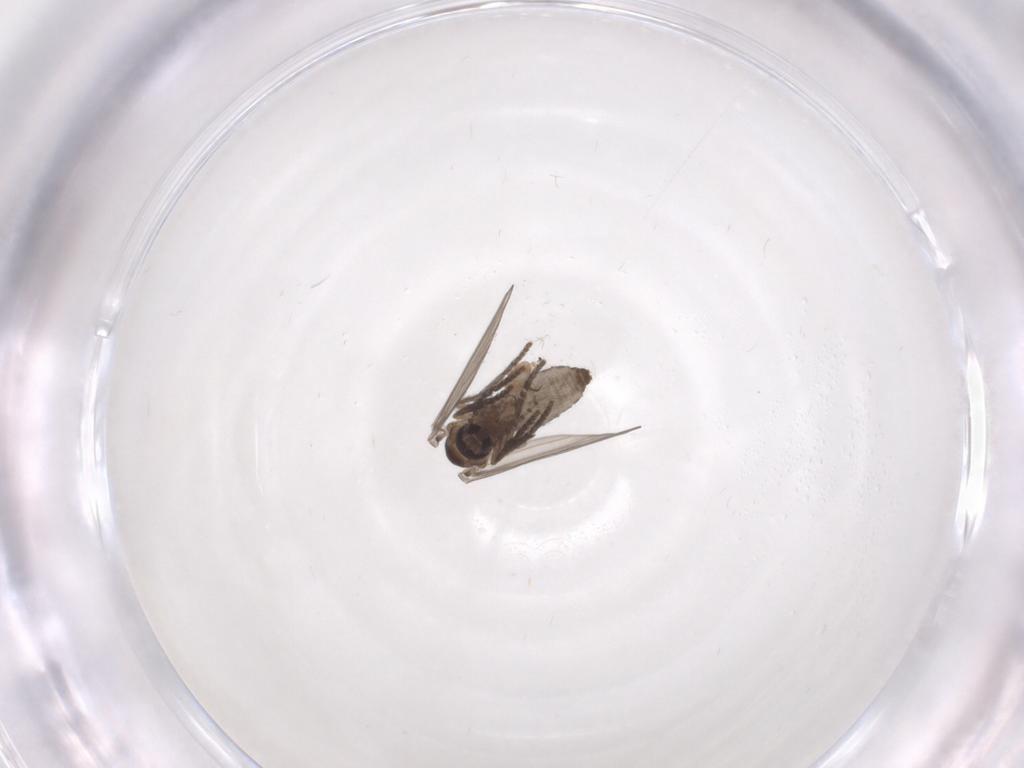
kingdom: Animalia
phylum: Arthropoda
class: Insecta
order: Diptera
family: Psychodidae
